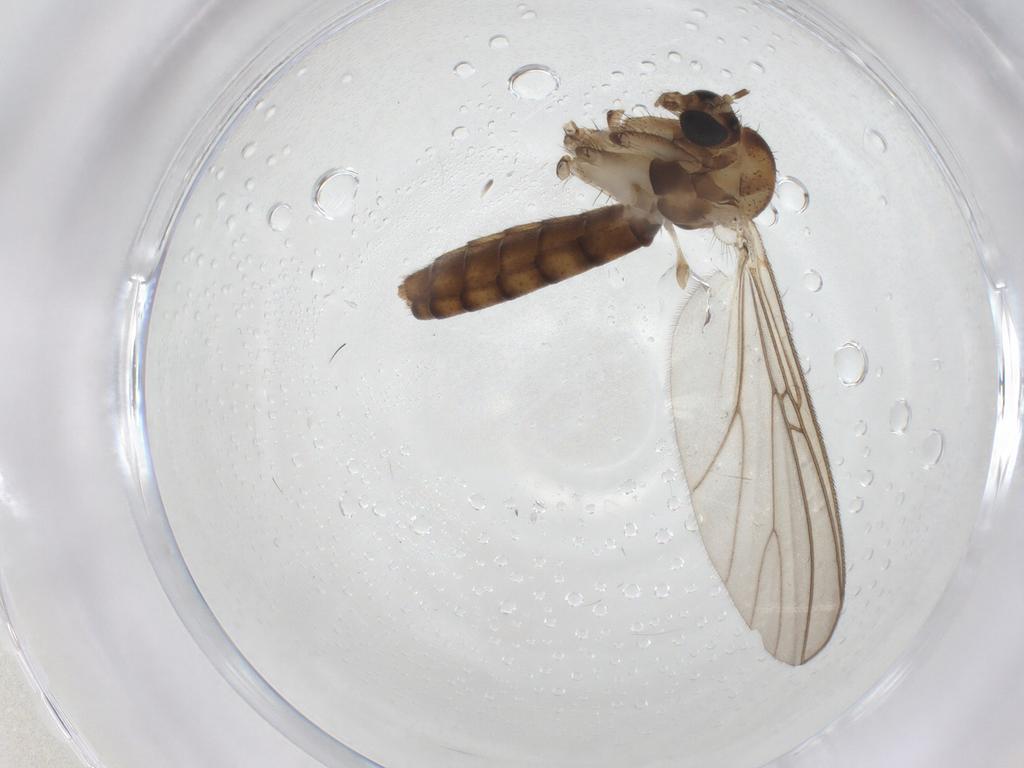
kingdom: Animalia
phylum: Arthropoda
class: Insecta
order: Diptera
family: Mycetophilidae
